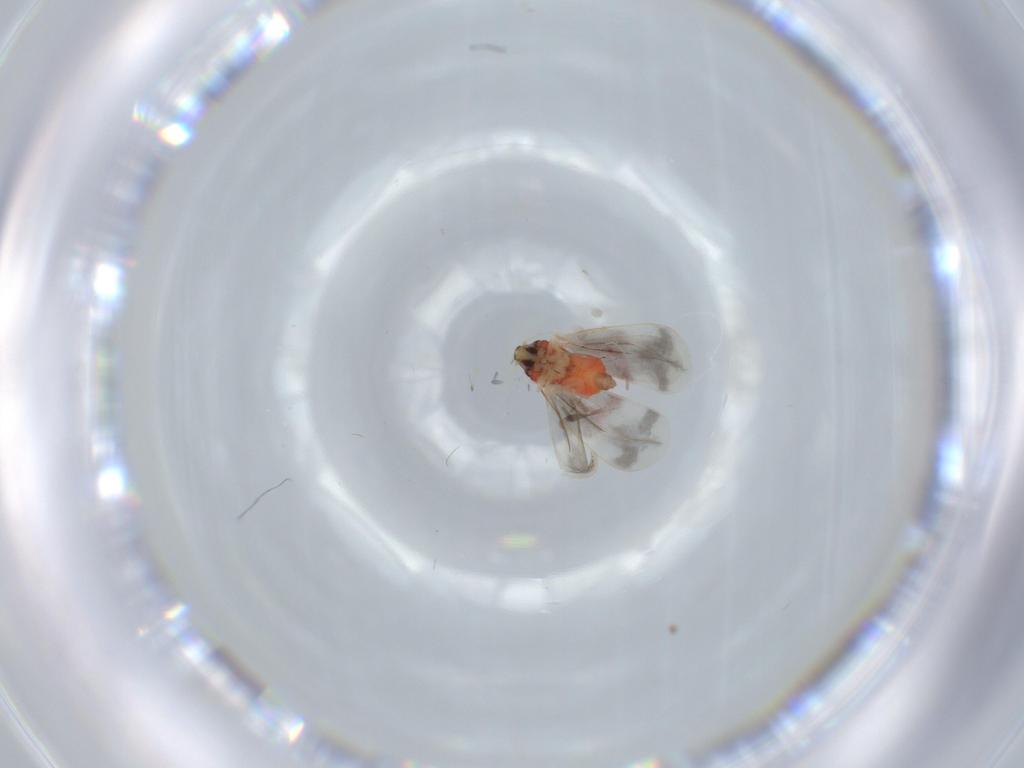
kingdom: Animalia
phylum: Arthropoda
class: Insecta
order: Hemiptera
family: Aleyrodidae
